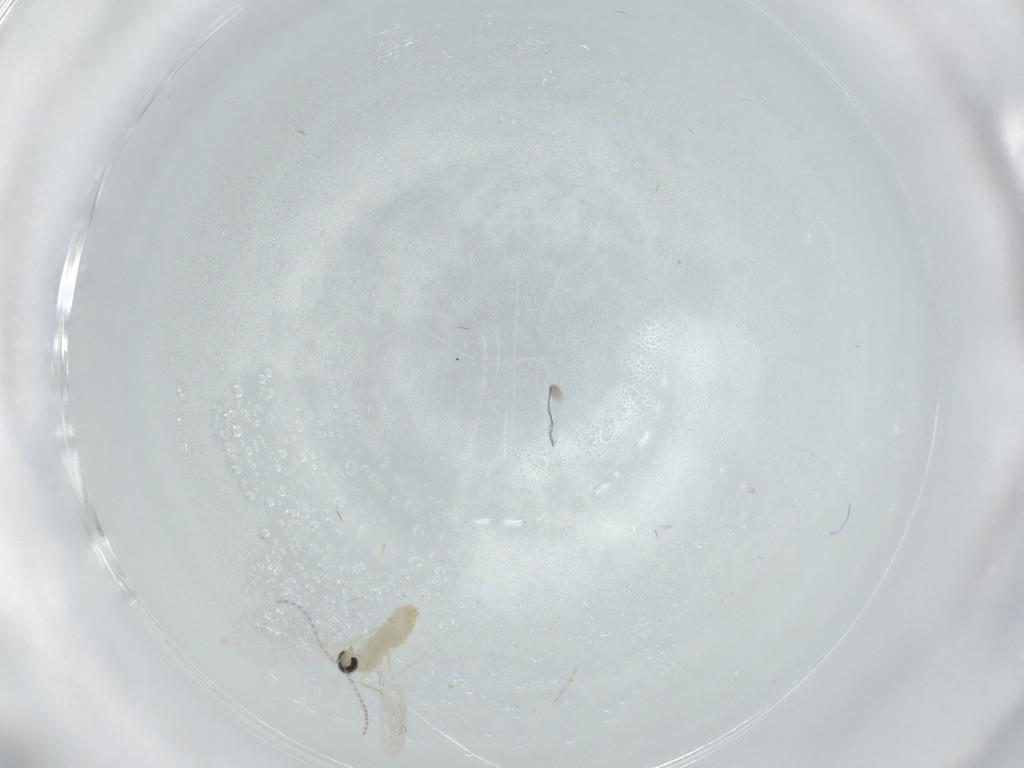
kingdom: Animalia
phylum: Arthropoda
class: Insecta
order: Diptera
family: Cecidomyiidae
